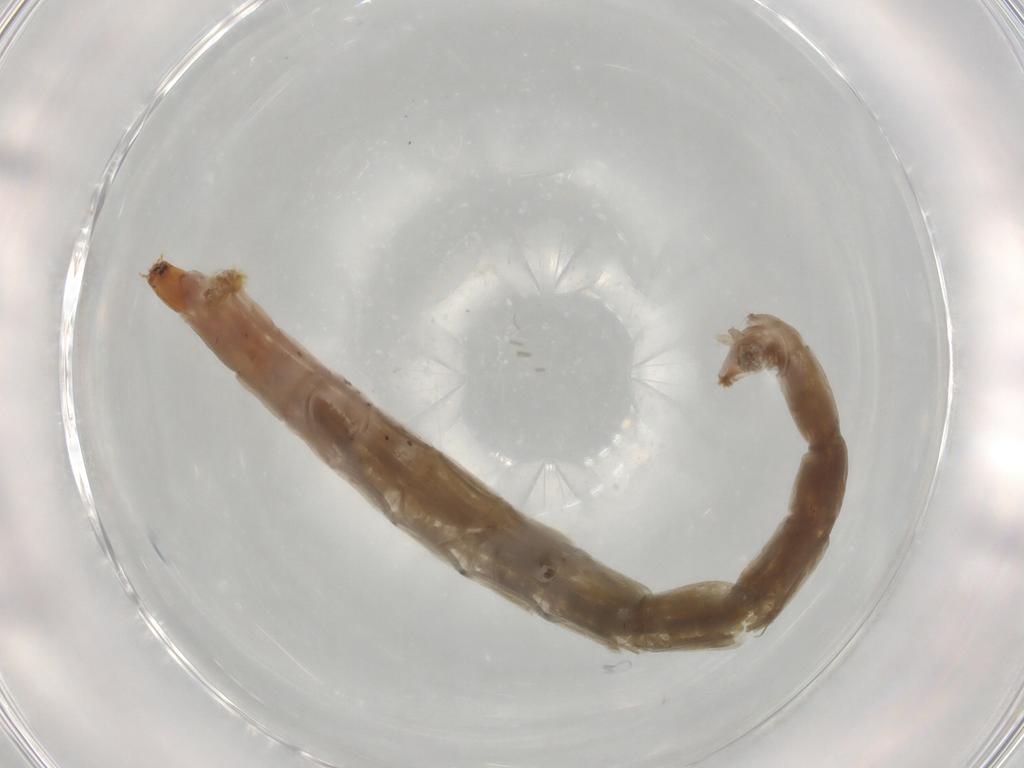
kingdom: Animalia
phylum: Arthropoda
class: Insecta
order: Diptera
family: Chironomidae
